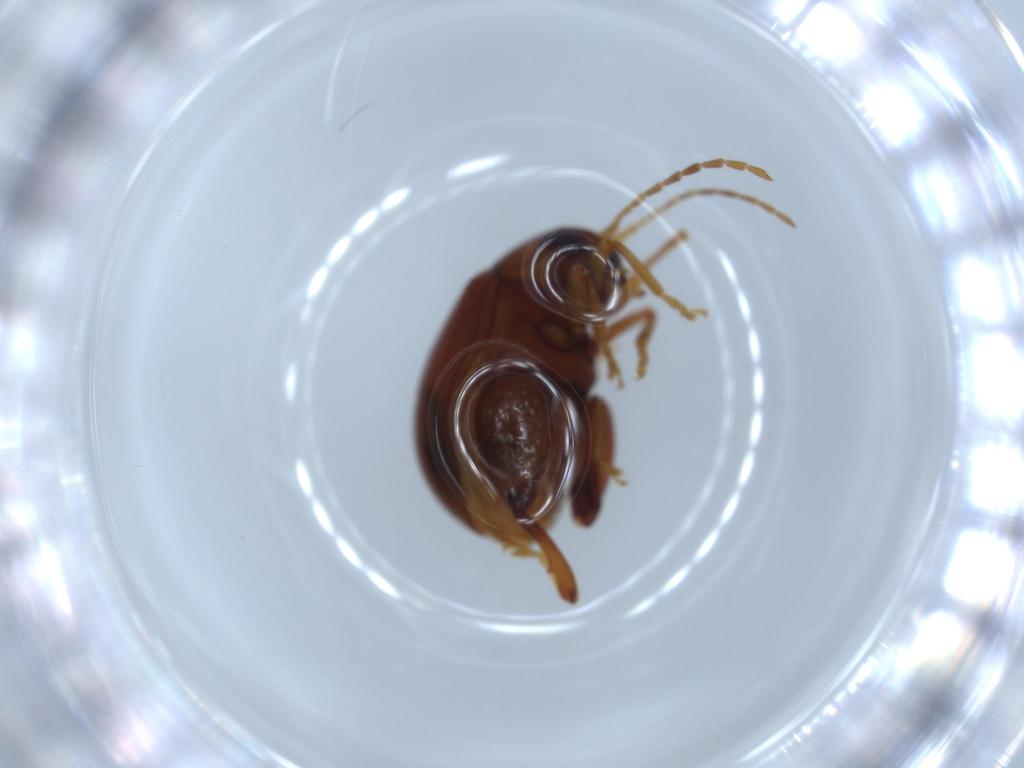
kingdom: Animalia
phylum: Arthropoda
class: Insecta
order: Coleoptera
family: Chrysomelidae
